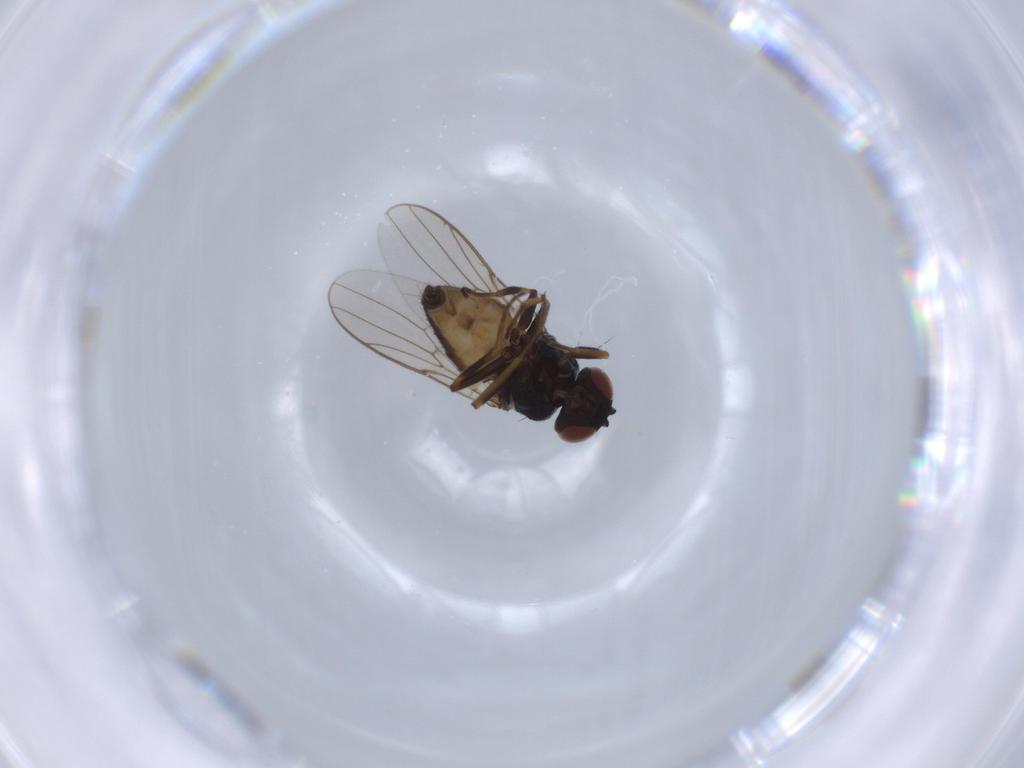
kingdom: Animalia
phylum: Arthropoda
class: Insecta
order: Diptera
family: Chloropidae
